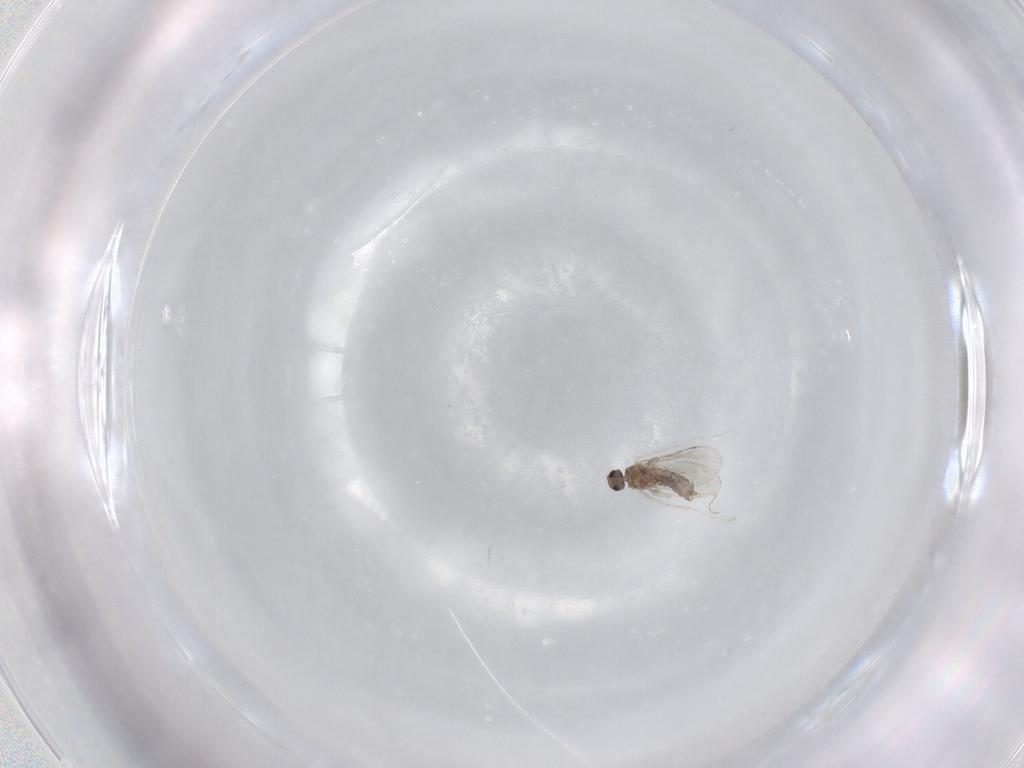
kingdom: Animalia
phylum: Arthropoda
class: Insecta
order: Diptera
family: Cecidomyiidae
